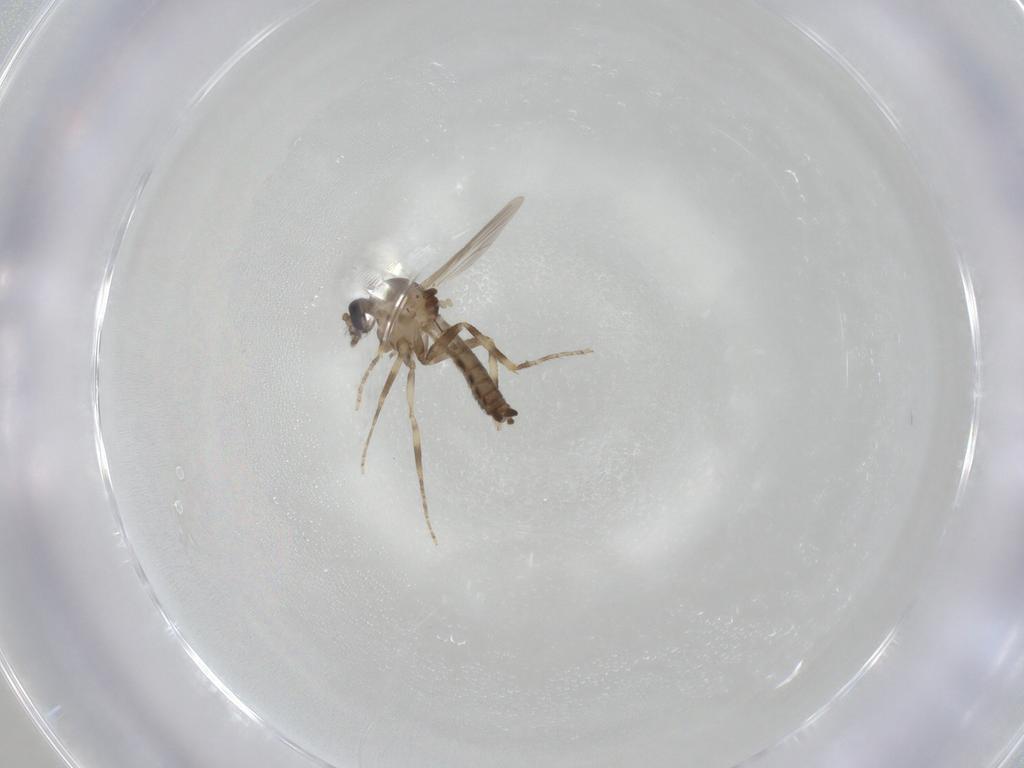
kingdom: Animalia
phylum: Arthropoda
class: Insecta
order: Diptera
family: Ceratopogonidae
